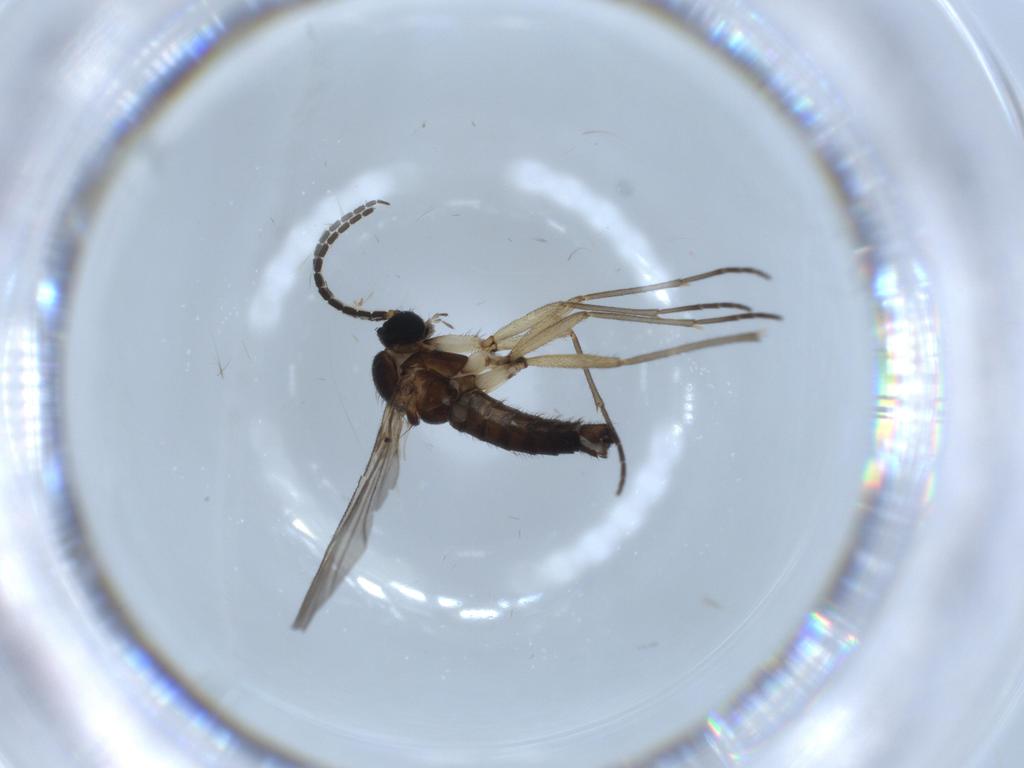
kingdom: Animalia
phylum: Arthropoda
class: Insecta
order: Diptera
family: Sciaridae
